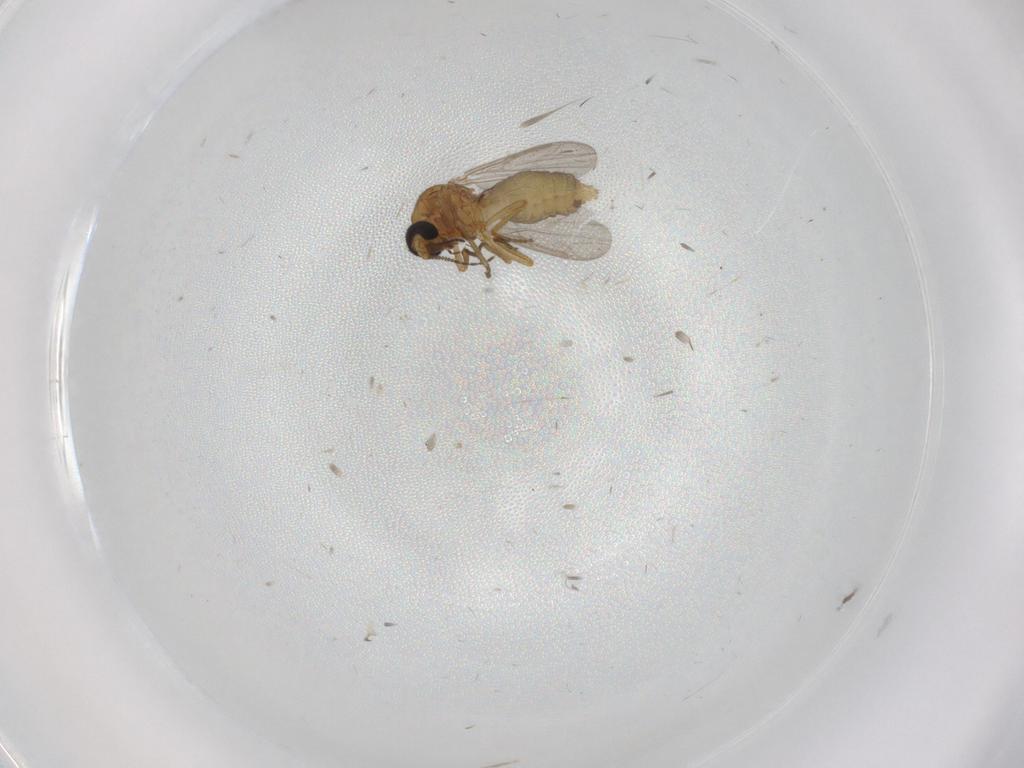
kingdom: Animalia
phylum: Arthropoda
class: Insecta
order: Diptera
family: Ceratopogonidae
